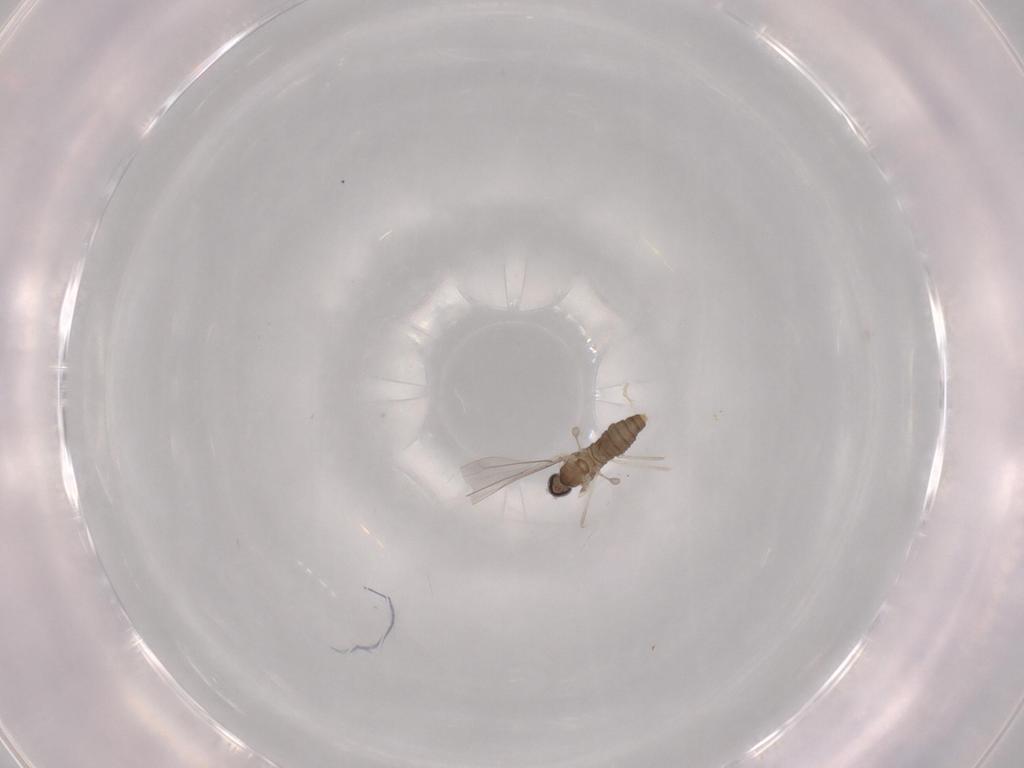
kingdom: Animalia
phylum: Arthropoda
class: Insecta
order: Diptera
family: Cecidomyiidae
